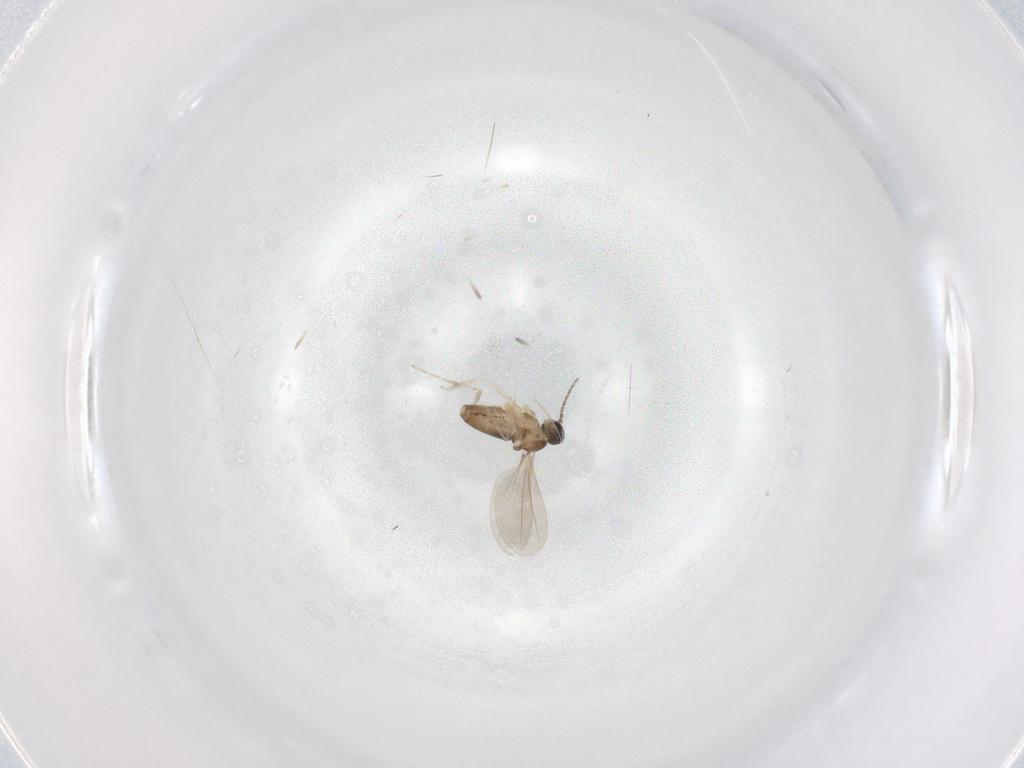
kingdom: Animalia
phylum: Arthropoda
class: Insecta
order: Diptera
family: Cecidomyiidae
